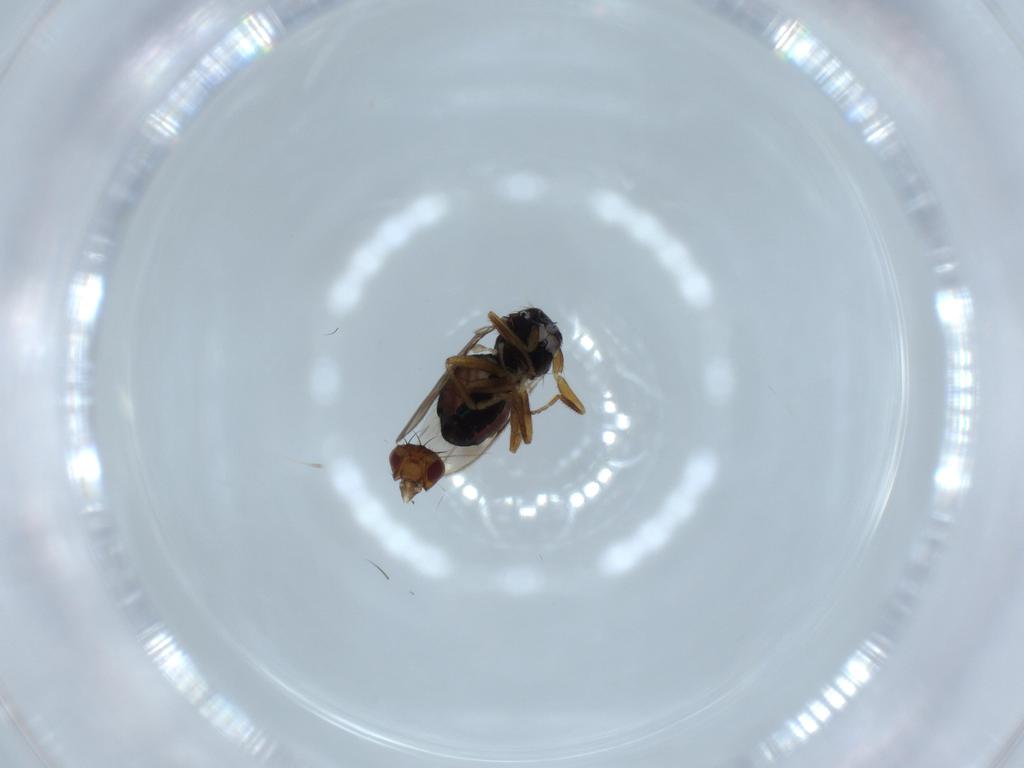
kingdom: Animalia
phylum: Arthropoda
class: Insecta
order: Diptera
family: Sphaeroceridae
